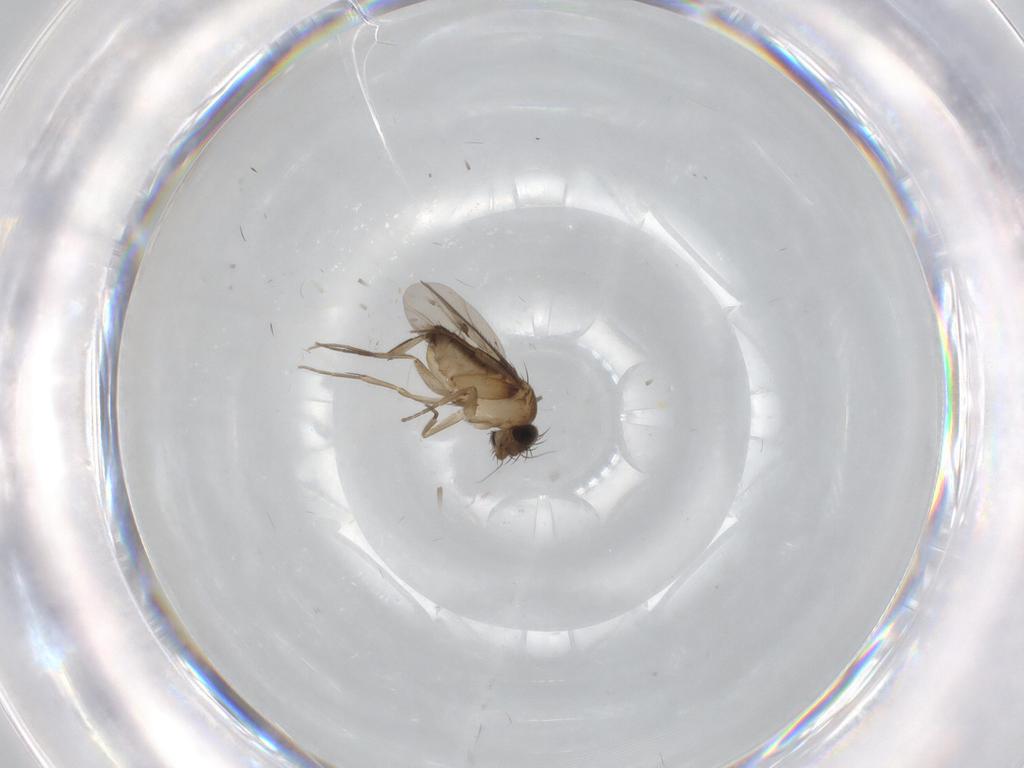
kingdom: Animalia
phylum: Arthropoda
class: Insecta
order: Diptera
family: Phoridae
